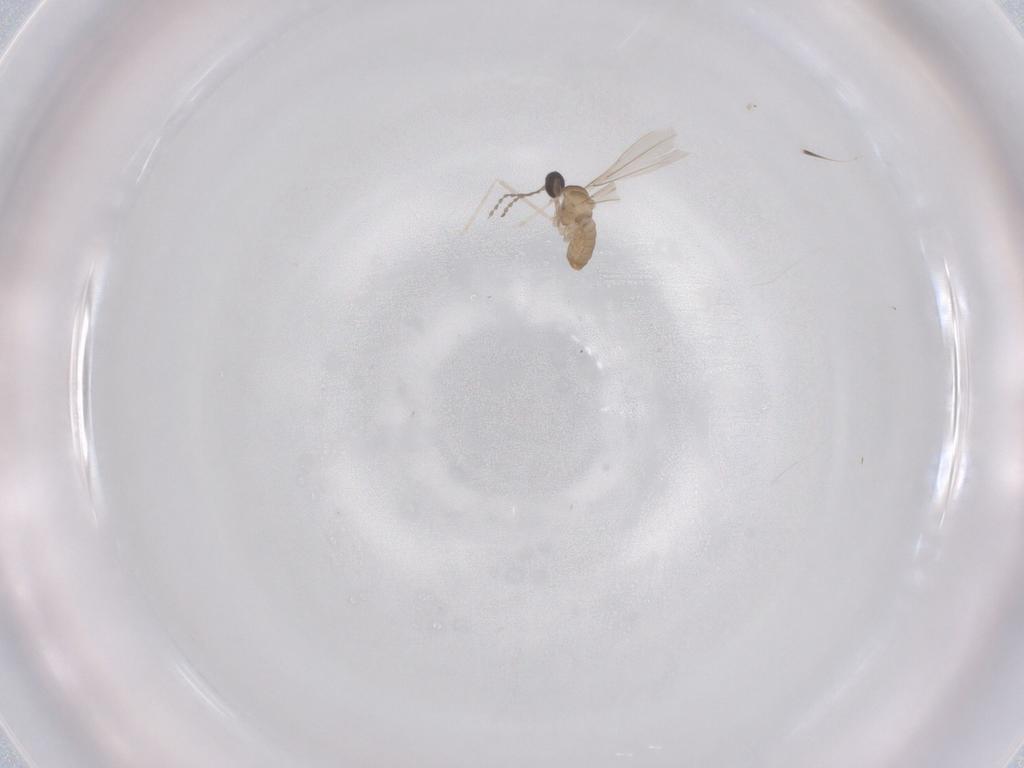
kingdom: Animalia
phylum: Arthropoda
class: Insecta
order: Diptera
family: Cecidomyiidae
